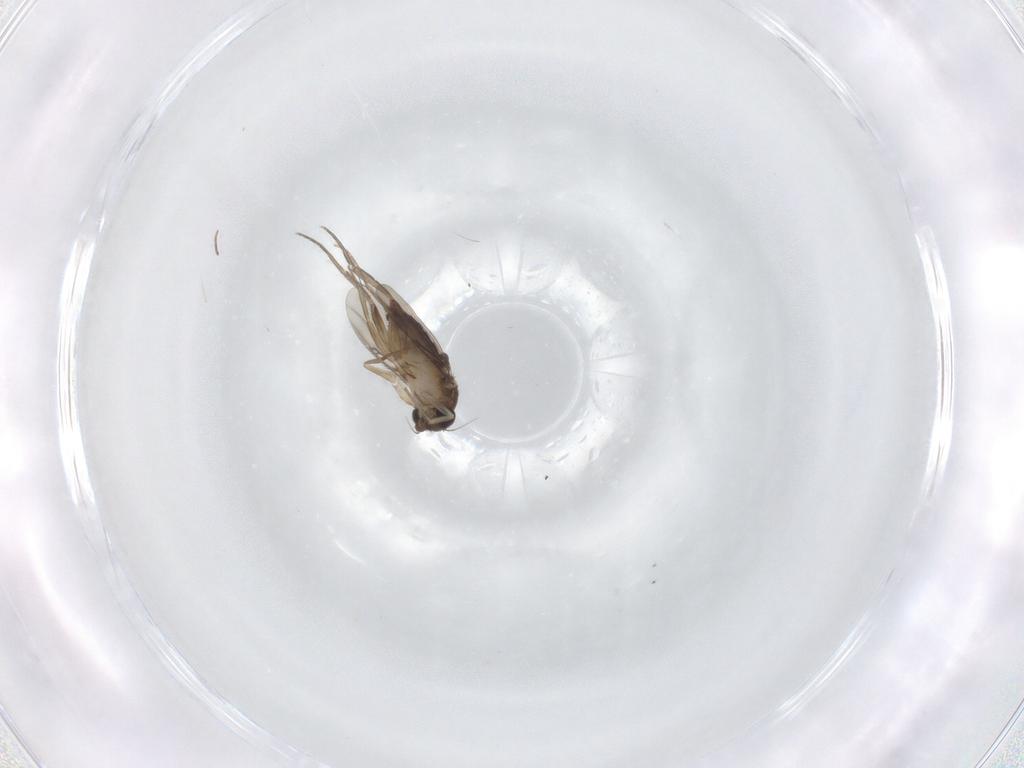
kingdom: Animalia
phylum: Arthropoda
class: Insecta
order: Diptera
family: Phoridae
